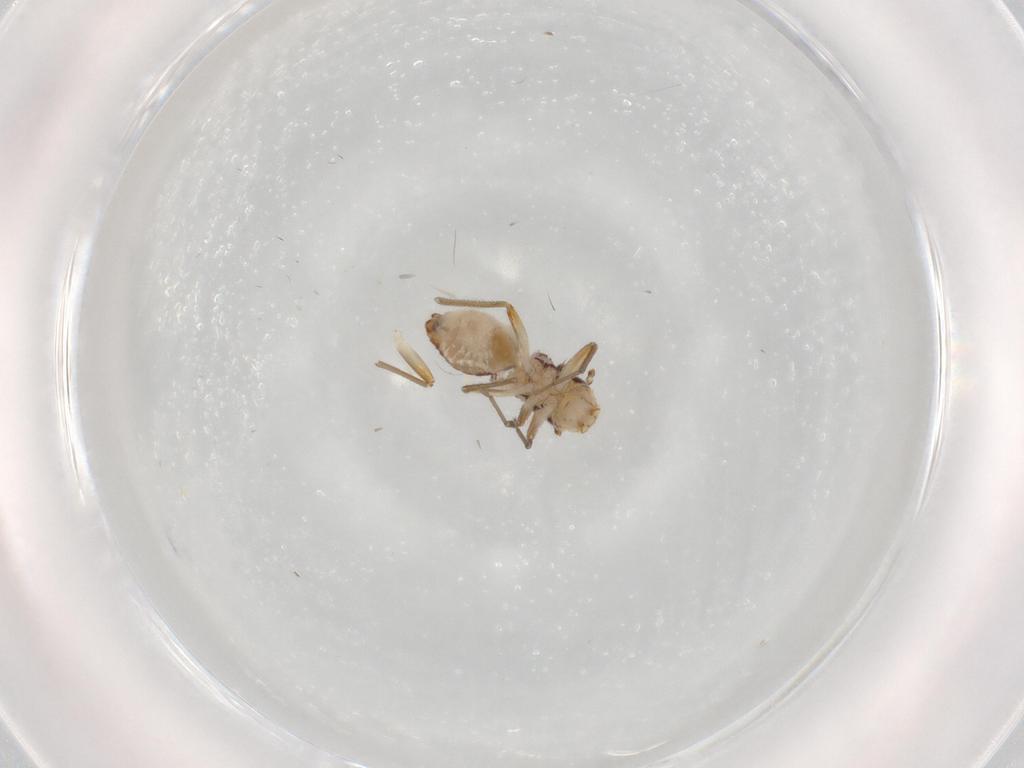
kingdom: Animalia
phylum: Arthropoda
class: Insecta
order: Psocodea
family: Mesopsocidae
